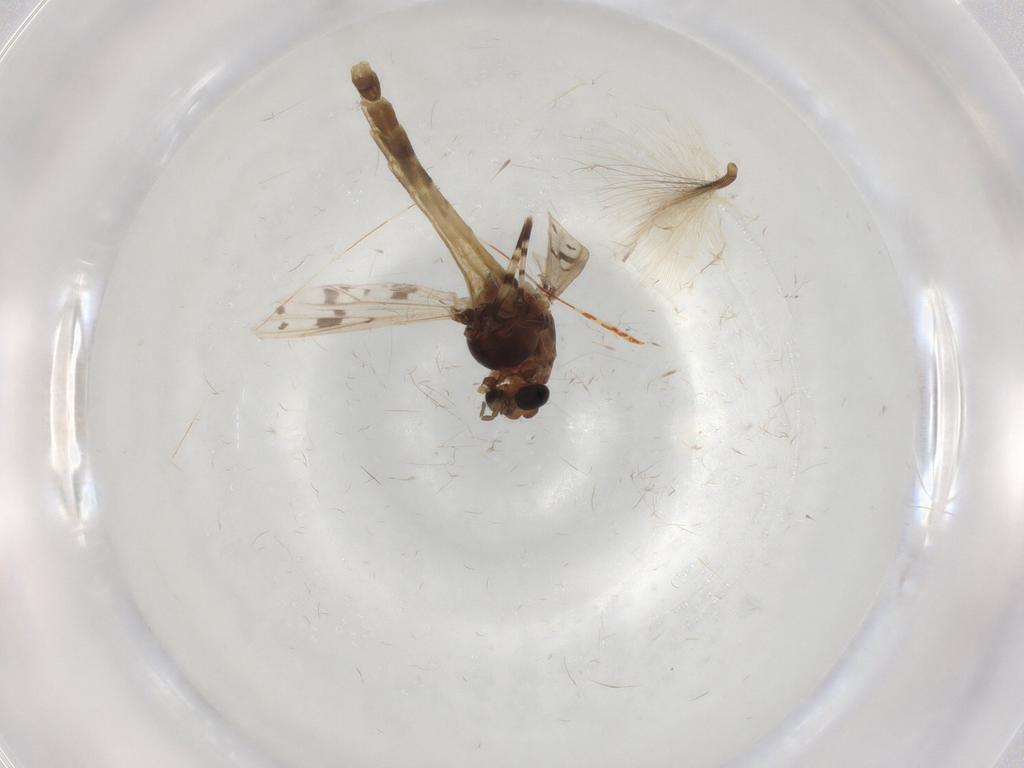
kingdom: Animalia
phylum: Arthropoda
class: Insecta
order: Diptera
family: Chironomidae
